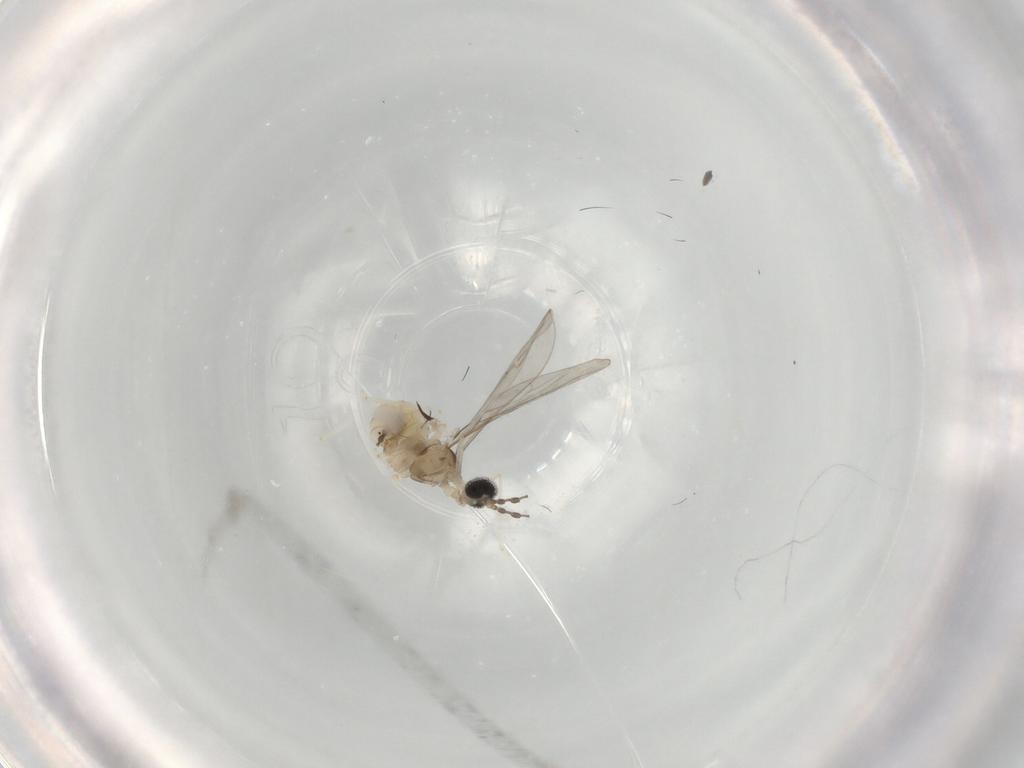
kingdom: Animalia
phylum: Arthropoda
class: Insecta
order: Diptera
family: Cecidomyiidae
